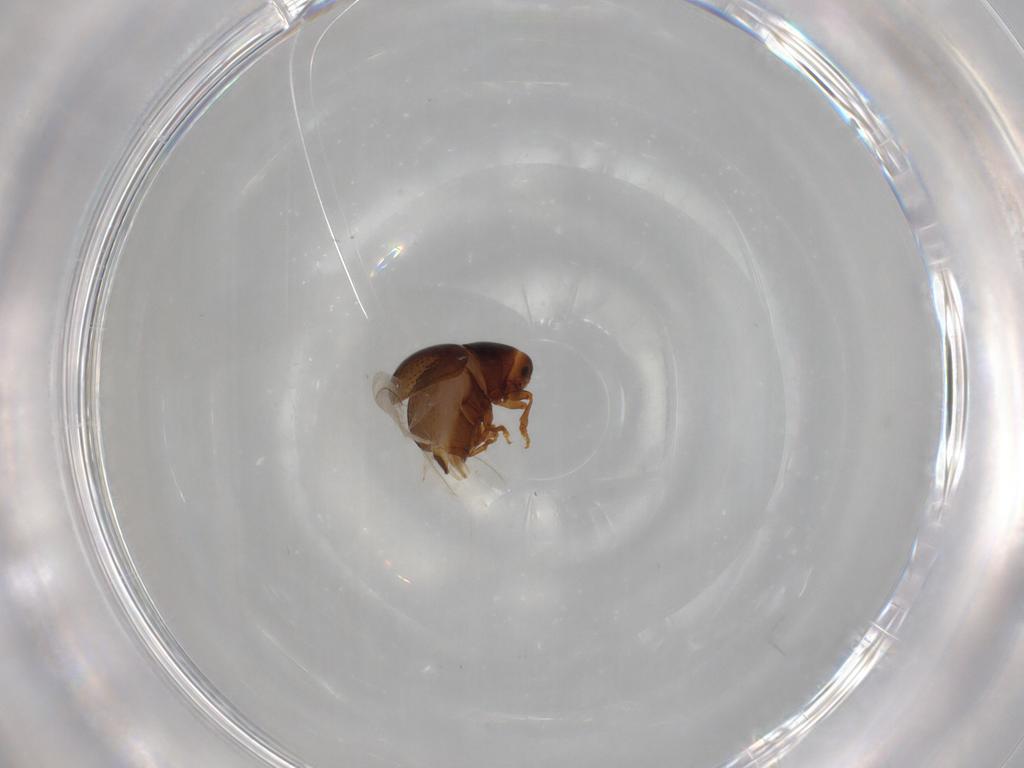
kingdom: Animalia
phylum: Arthropoda
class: Insecta
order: Coleoptera
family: Anthribidae
